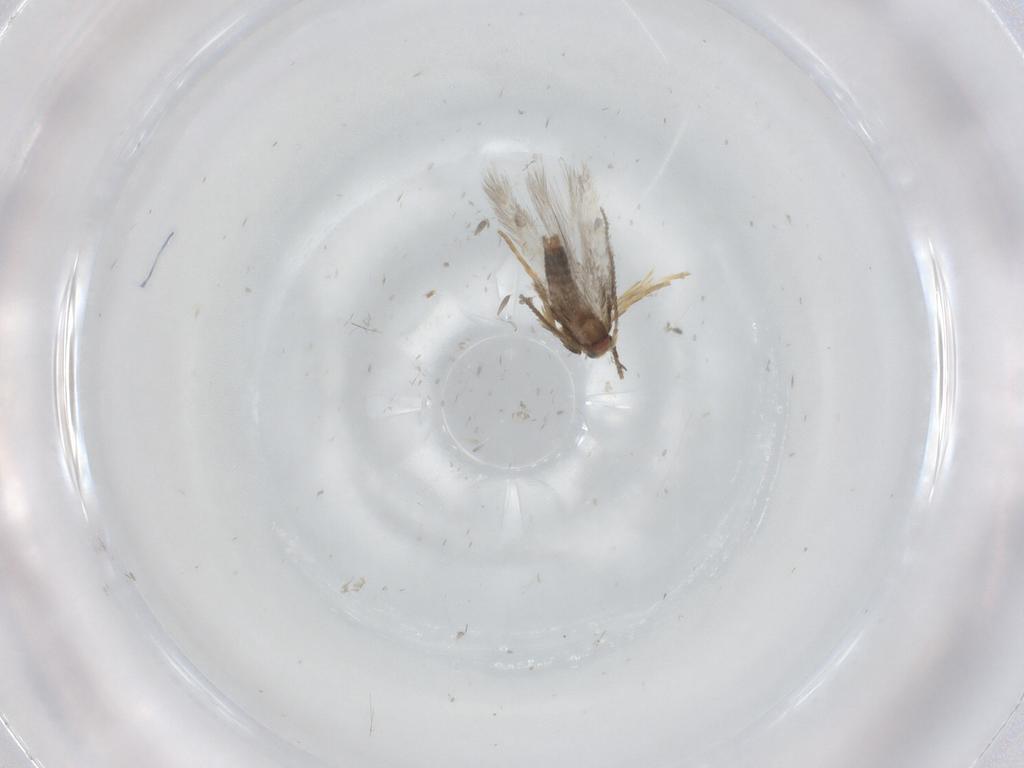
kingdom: Animalia
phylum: Arthropoda
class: Insecta
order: Lepidoptera
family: Nepticulidae
